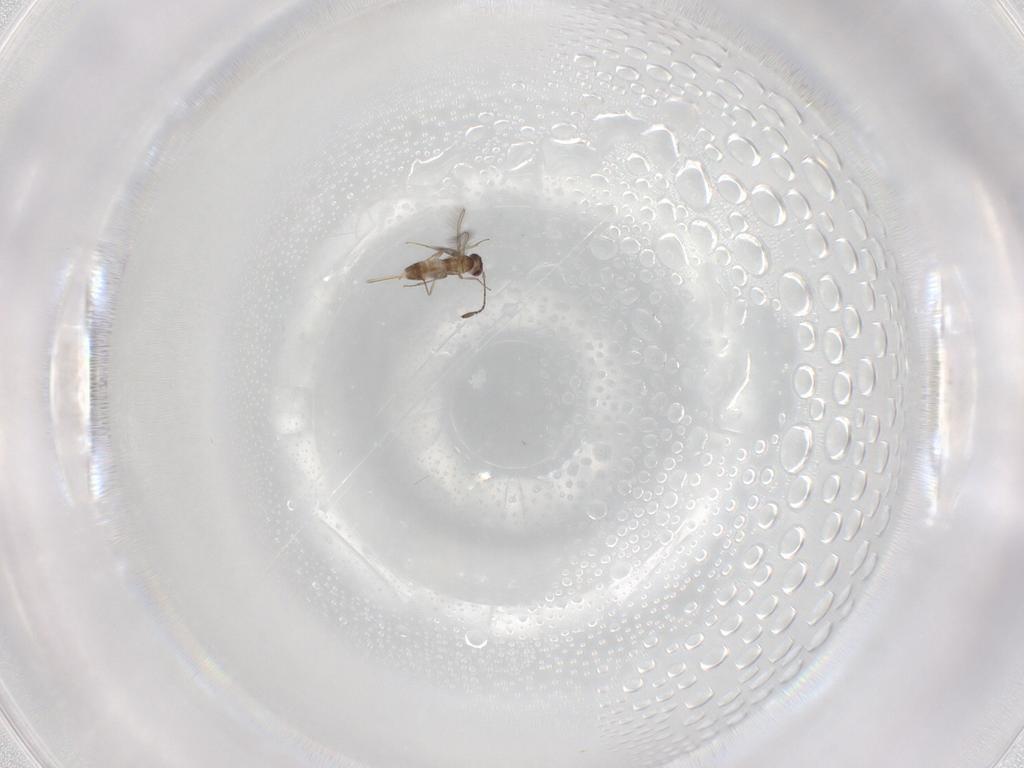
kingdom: Animalia
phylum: Arthropoda
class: Insecta
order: Hymenoptera
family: Mymaridae
